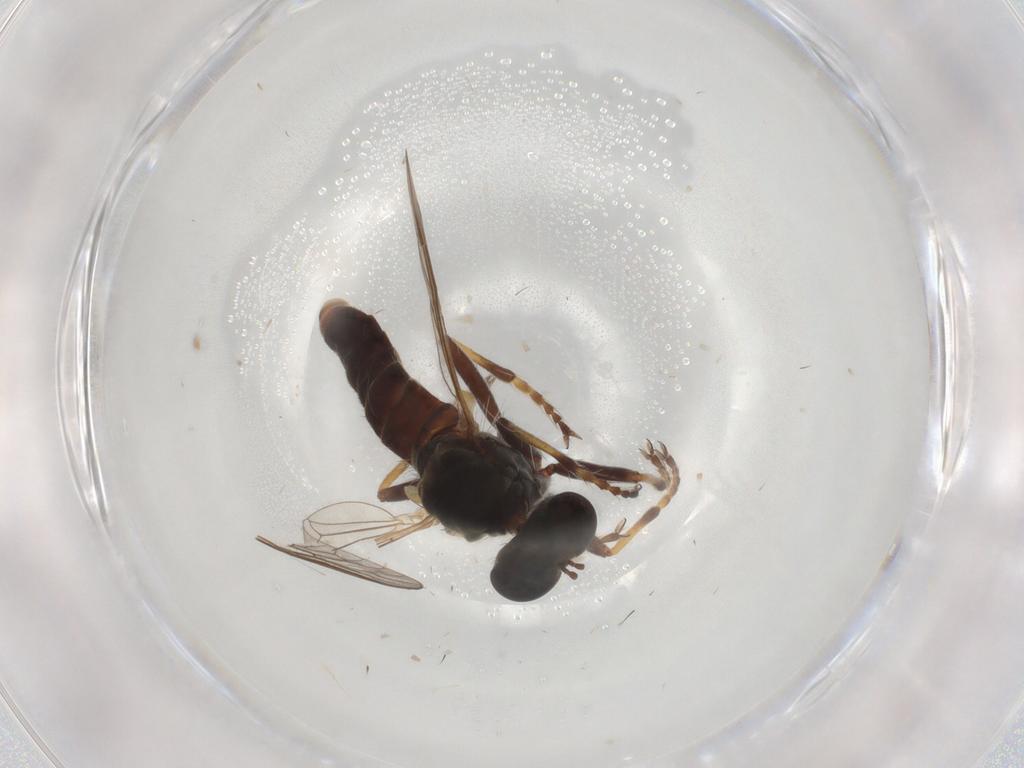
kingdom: Animalia
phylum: Arthropoda
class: Insecta
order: Diptera
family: Asilidae
